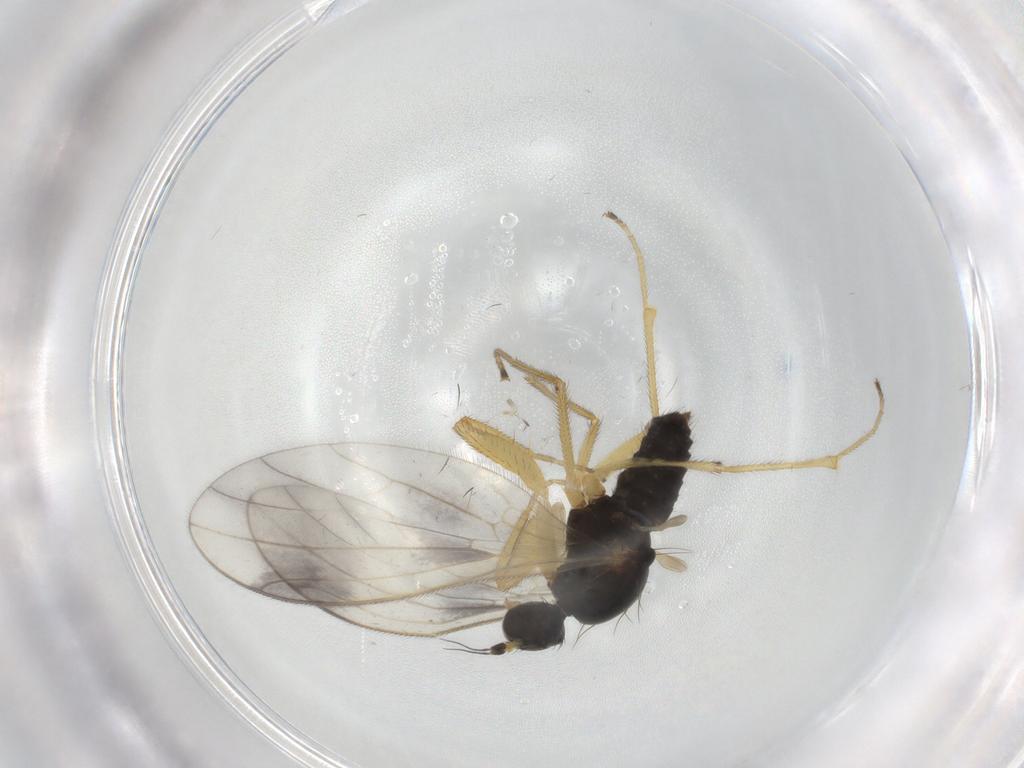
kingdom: Animalia
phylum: Arthropoda
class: Insecta
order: Diptera
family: Empididae
